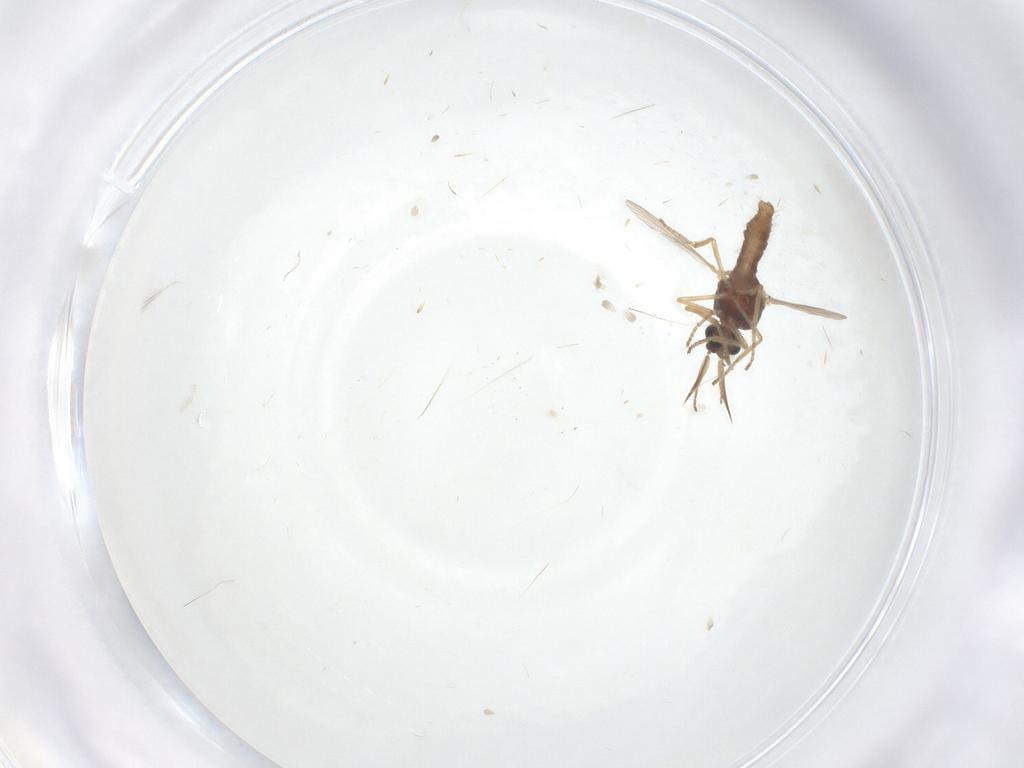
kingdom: Animalia
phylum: Arthropoda
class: Insecta
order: Diptera
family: Ceratopogonidae
